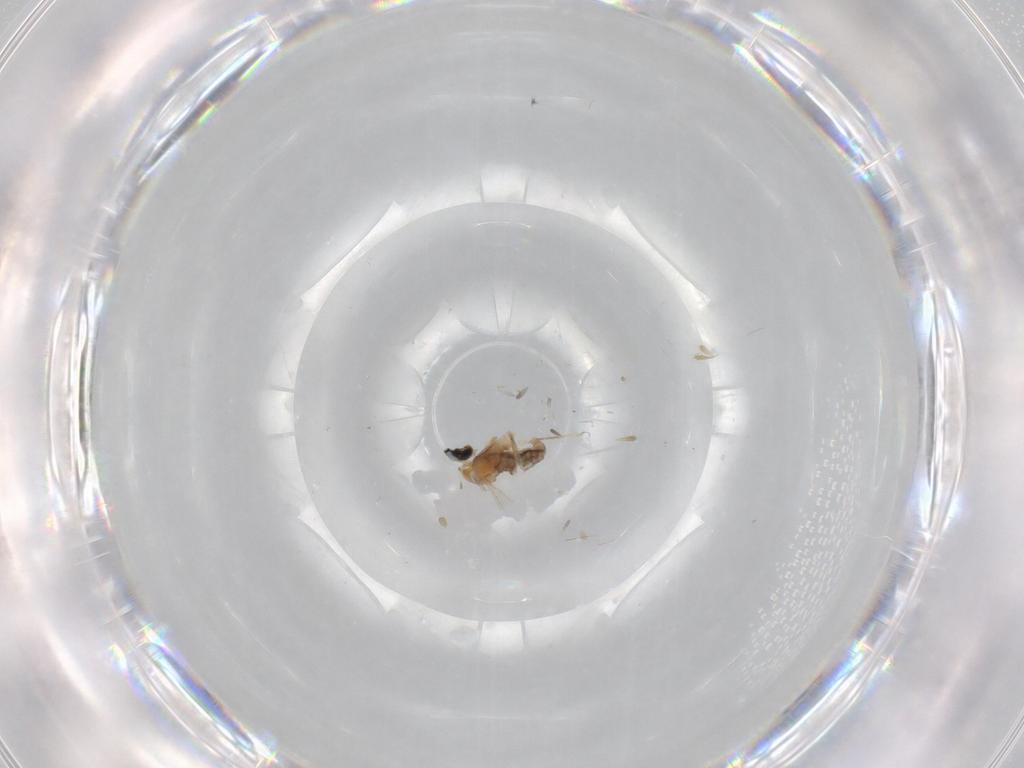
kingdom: Animalia
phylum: Arthropoda
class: Insecta
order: Diptera
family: Cecidomyiidae
